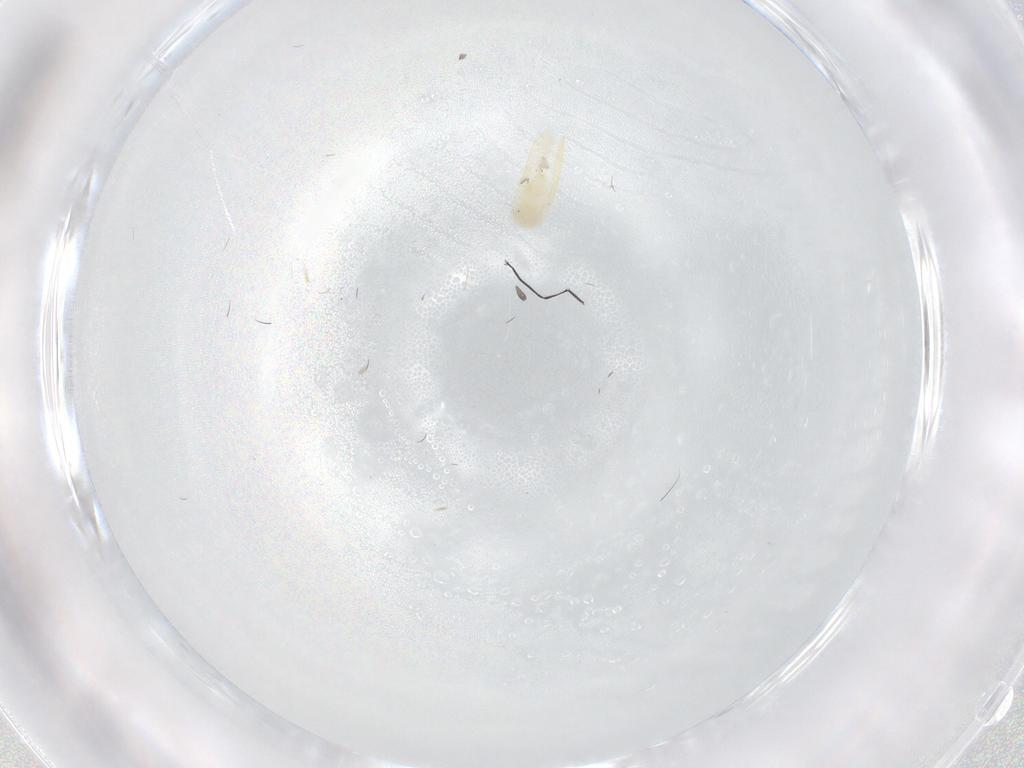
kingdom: Animalia
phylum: Arthropoda
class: Insecta
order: Hemiptera
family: Aleyrodidae
